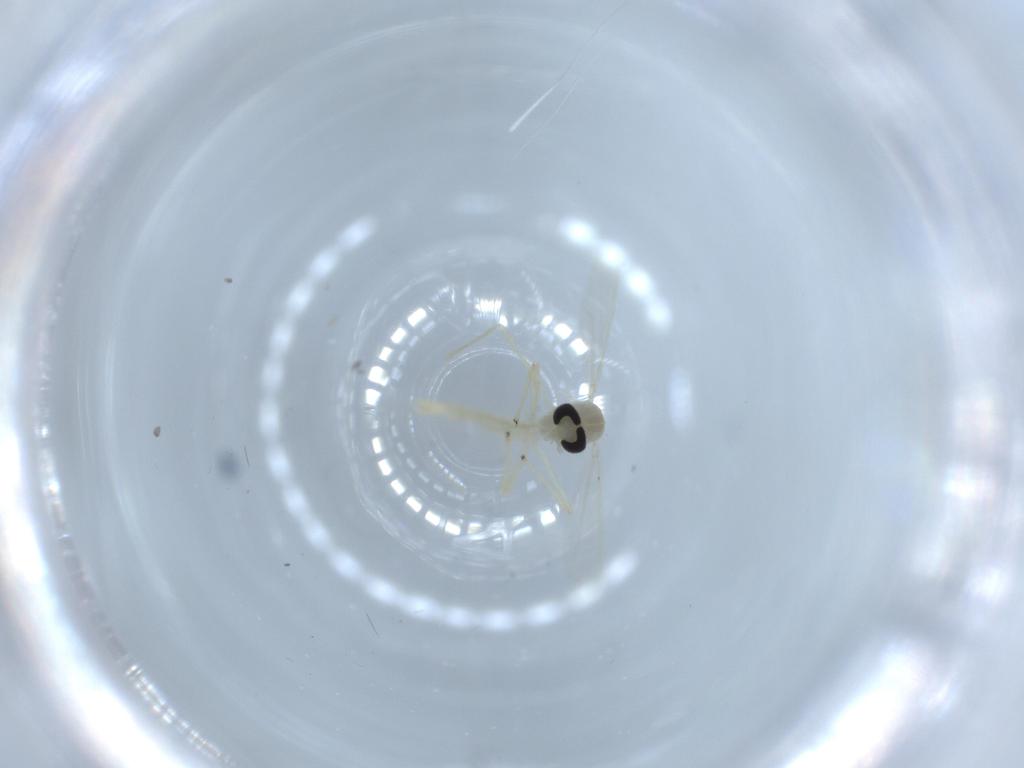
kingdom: Animalia
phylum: Arthropoda
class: Insecta
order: Diptera
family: Chironomidae
